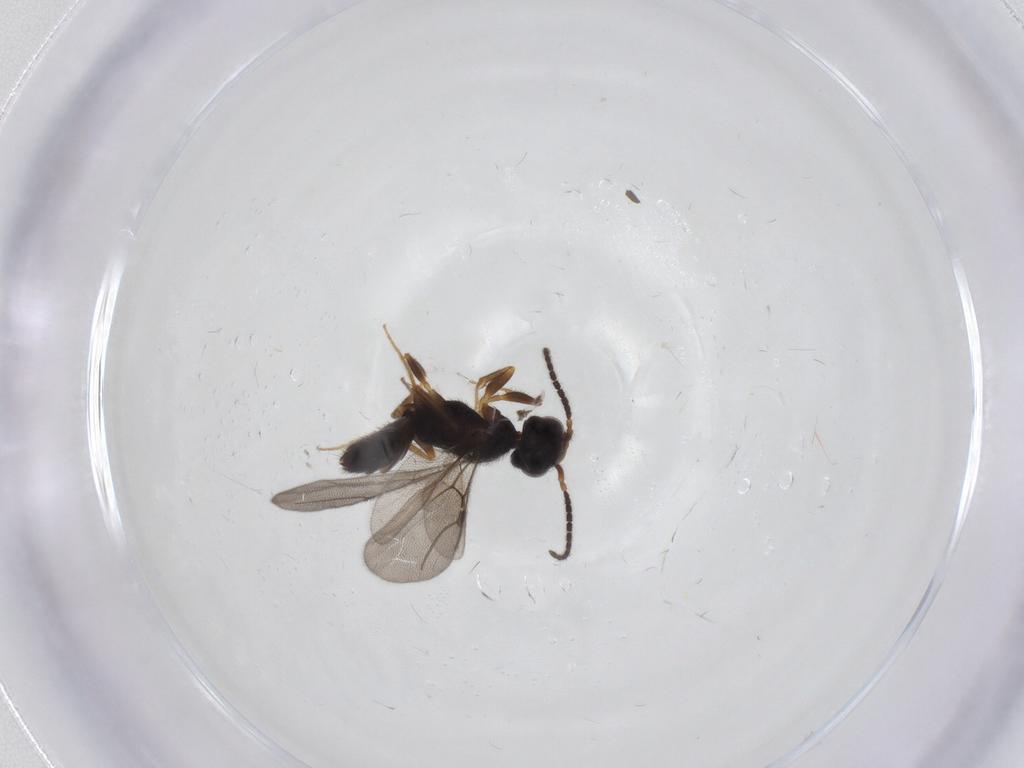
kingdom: Animalia
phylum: Arthropoda
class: Insecta
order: Hymenoptera
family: Bethylidae
